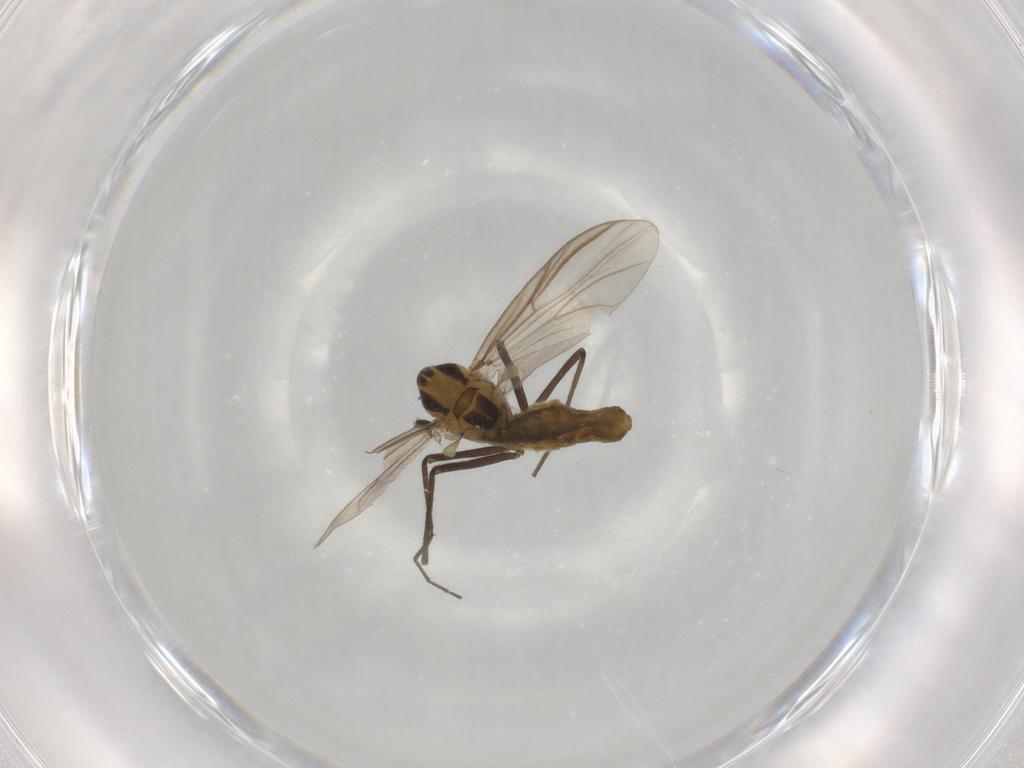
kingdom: Animalia
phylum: Arthropoda
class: Insecta
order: Diptera
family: Chironomidae
